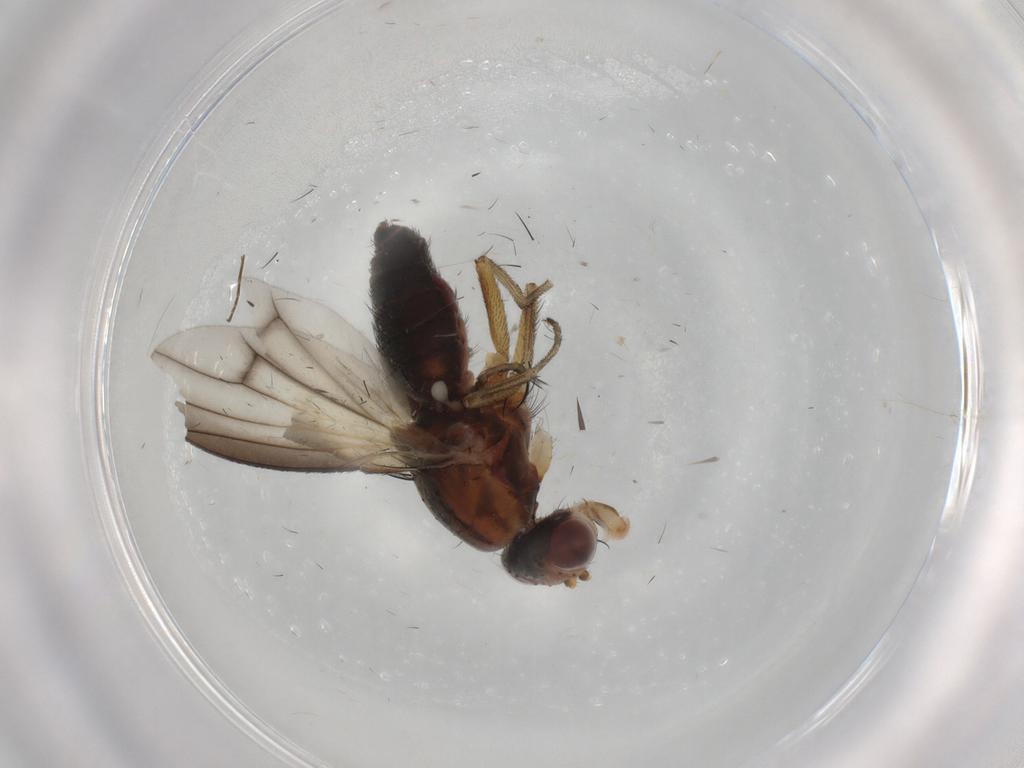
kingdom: Animalia
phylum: Arthropoda
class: Insecta
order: Diptera
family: Heleomyzidae
